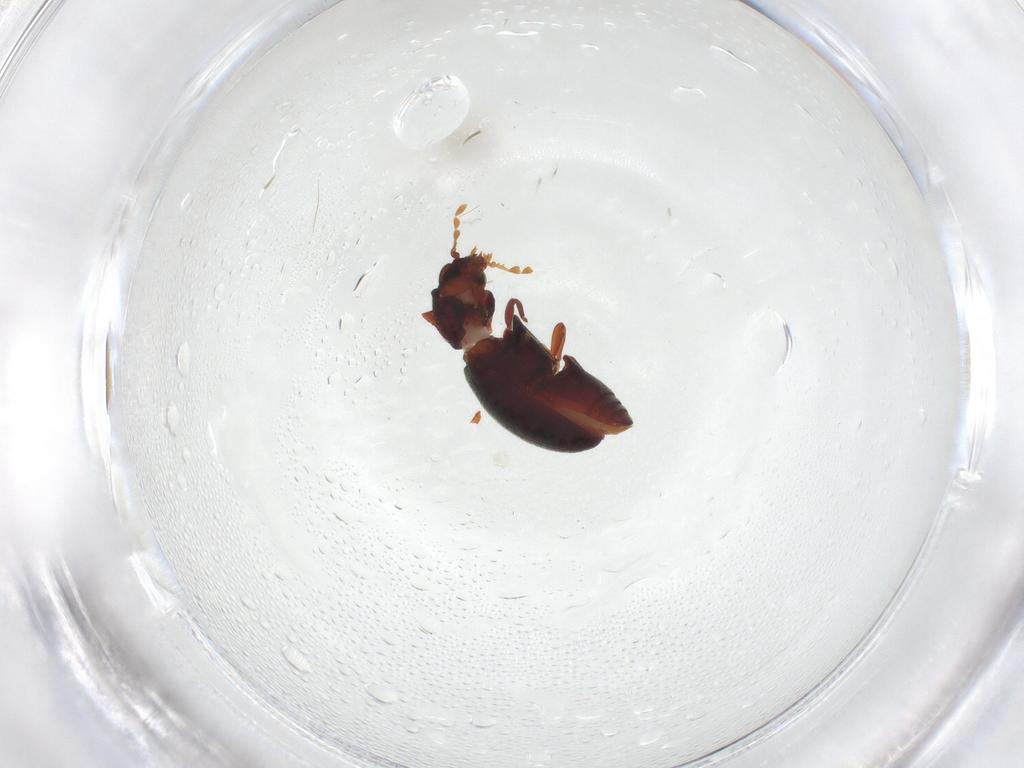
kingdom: Animalia
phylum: Arthropoda
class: Insecta
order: Coleoptera
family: Ptinidae
